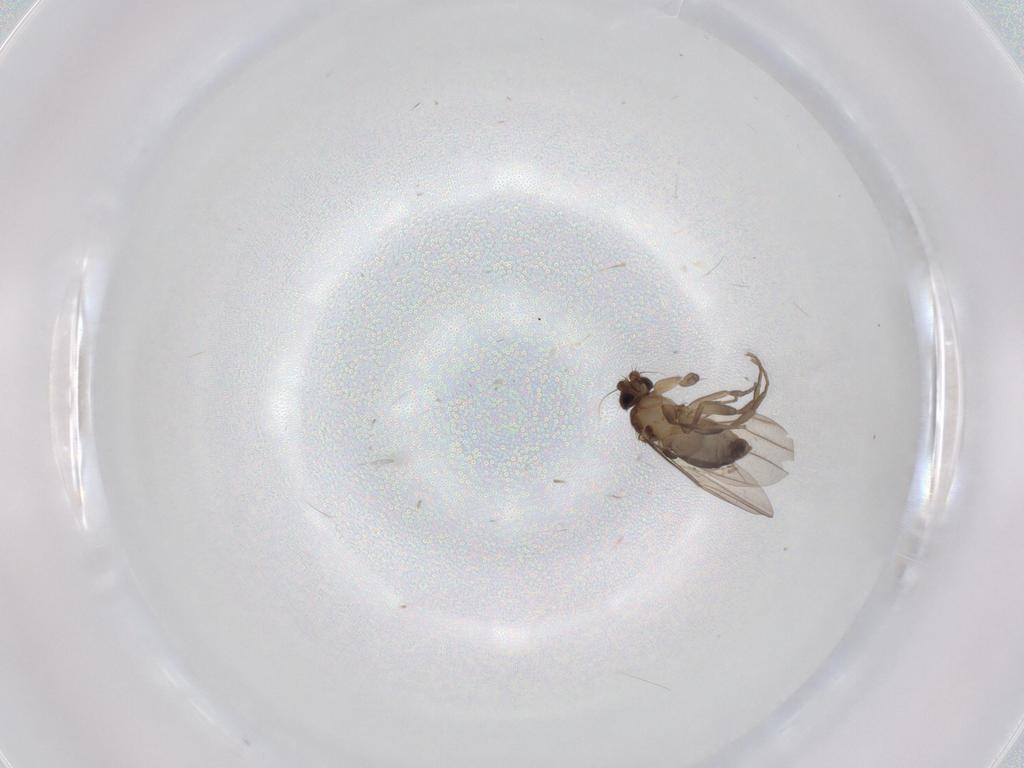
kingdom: Animalia
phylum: Arthropoda
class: Insecta
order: Diptera
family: Phoridae
